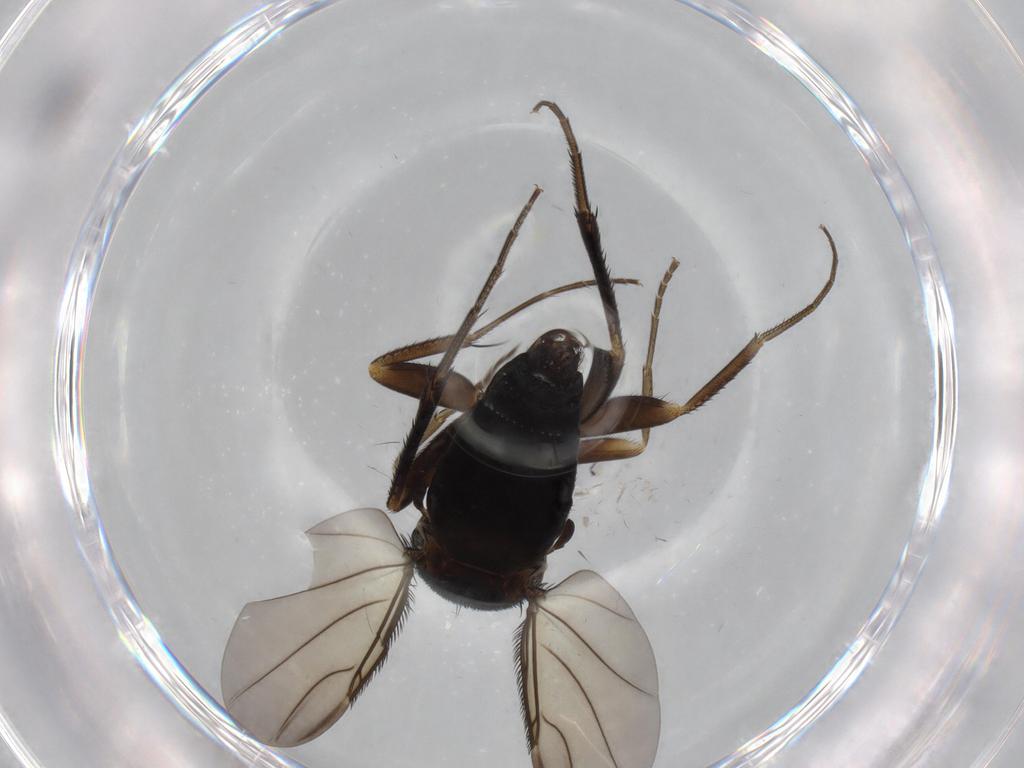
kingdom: Animalia
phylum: Arthropoda
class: Insecta
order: Diptera
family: Phoridae
